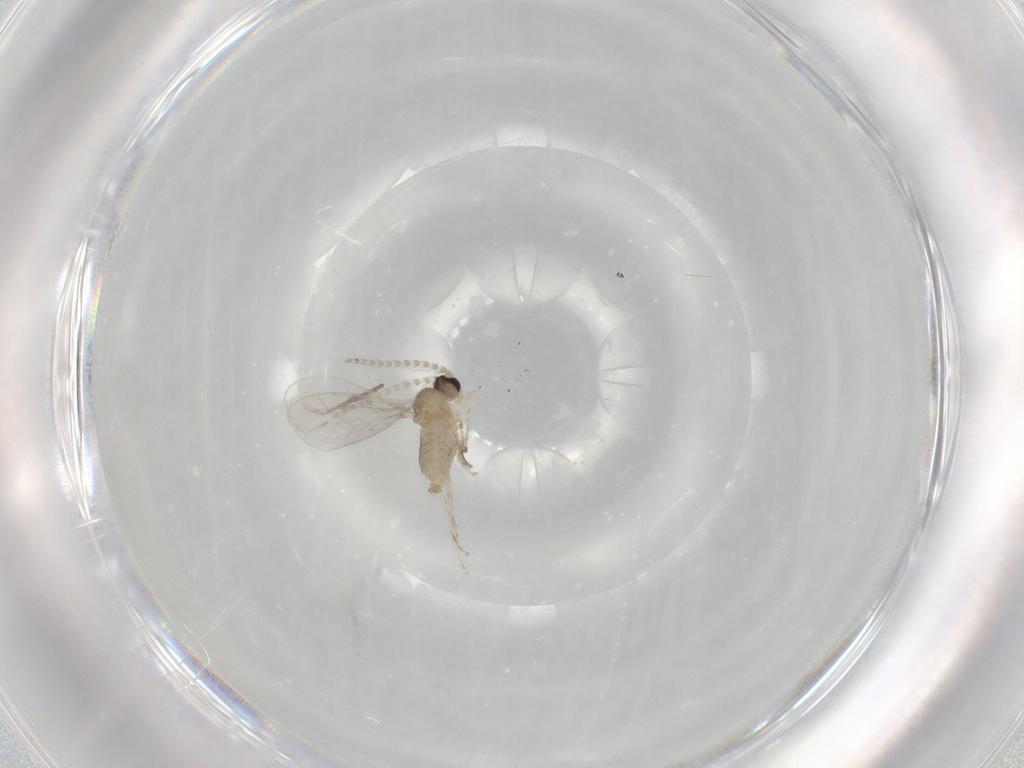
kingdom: Animalia
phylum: Arthropoda
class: Insecta
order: Diptera
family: Cecidomyiidae
